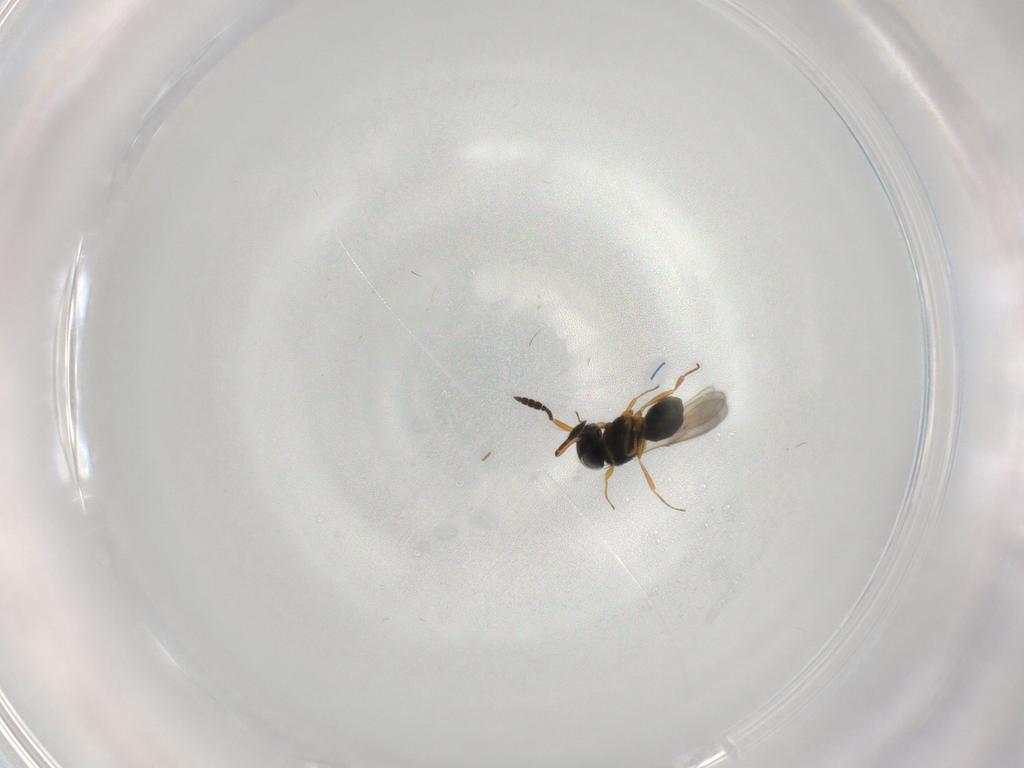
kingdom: Animalia
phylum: Arthropoda
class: Insecta
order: Hymenoptera
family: Scelionidae
